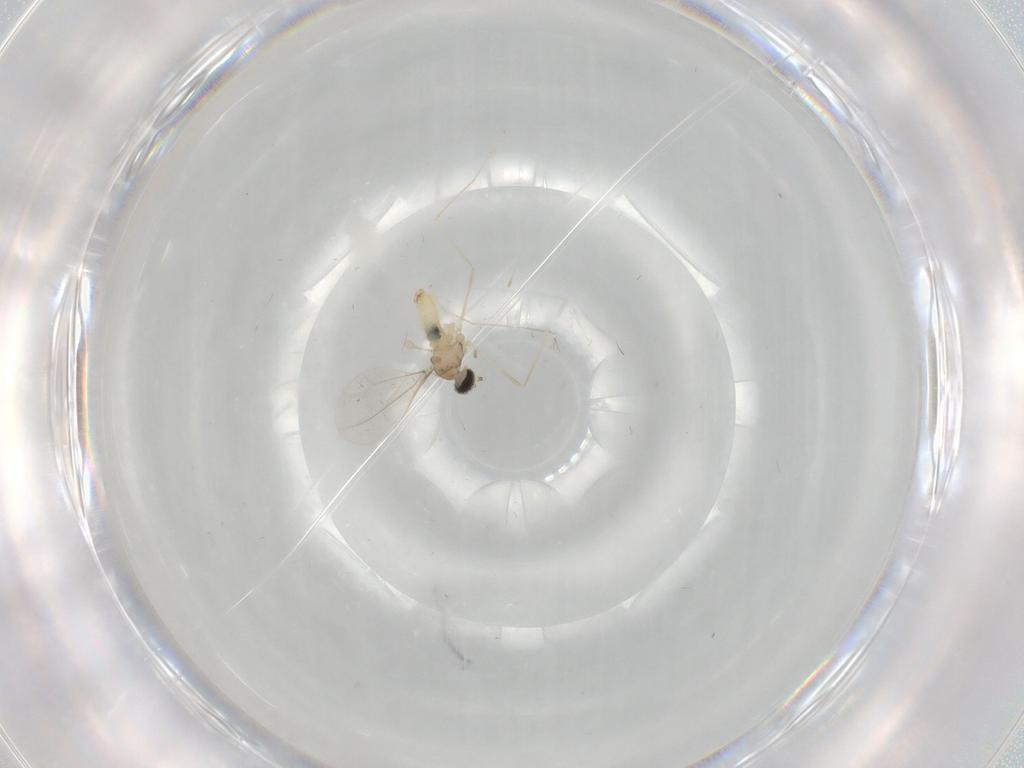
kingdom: Animalia
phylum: Arthropoda
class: Insecta
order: Diptera
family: Cecidomyiidae
